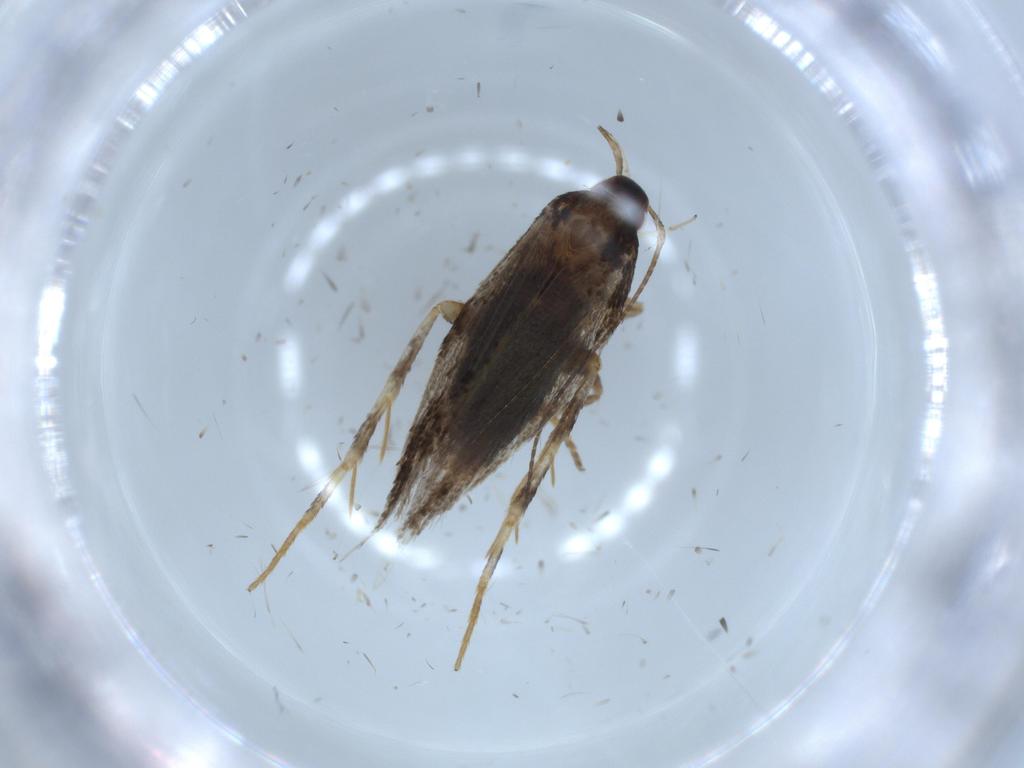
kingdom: Animalia
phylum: Arthropoda
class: Insecta
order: Lepidoptera
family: Cosmopterigidae
